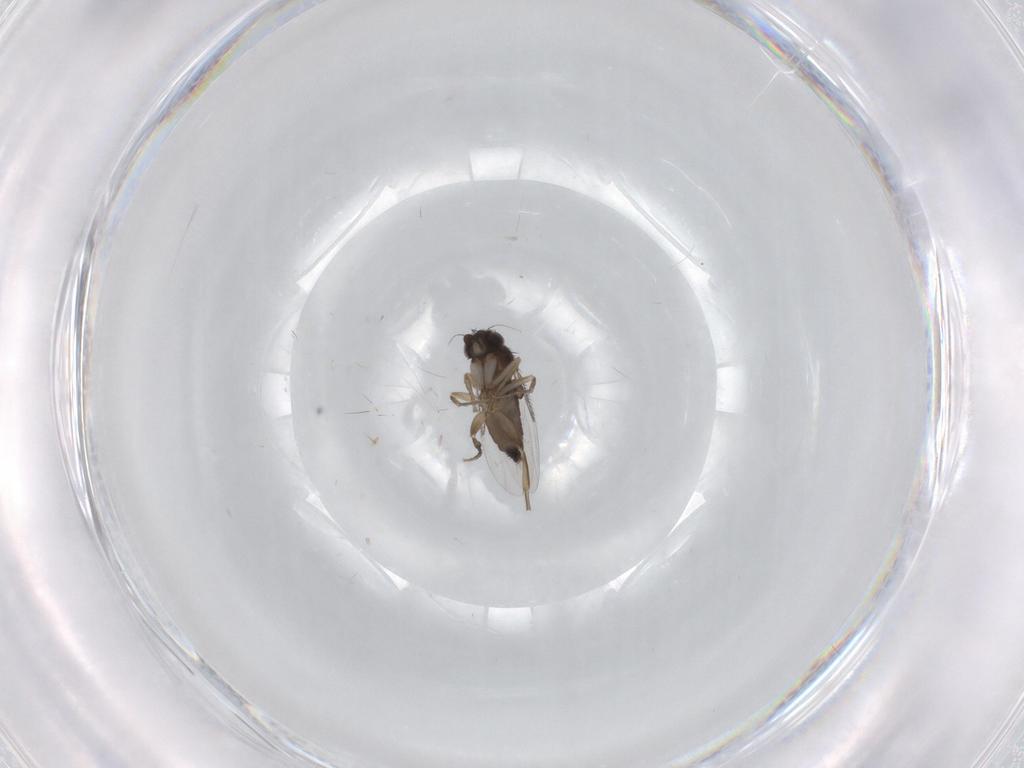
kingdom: Animalia
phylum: Arthropoda
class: Insecta
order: Diptera
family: Phoridae
